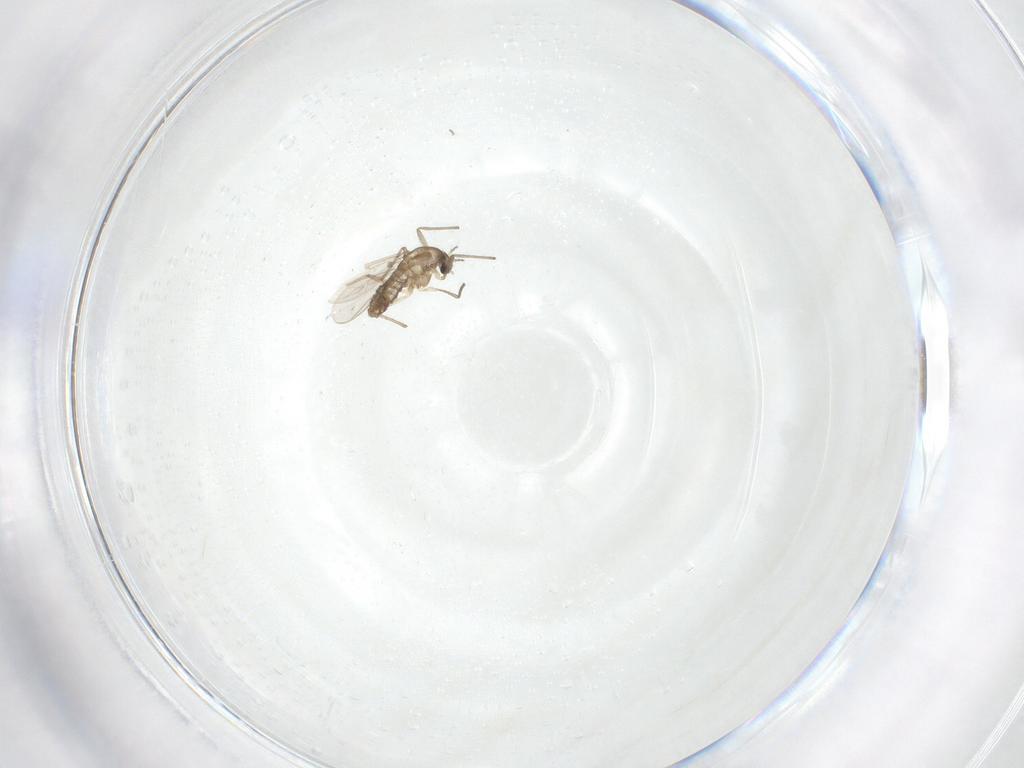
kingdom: Animalia
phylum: Arthropoda
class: Insecta
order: Diptera
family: Chironomidae
